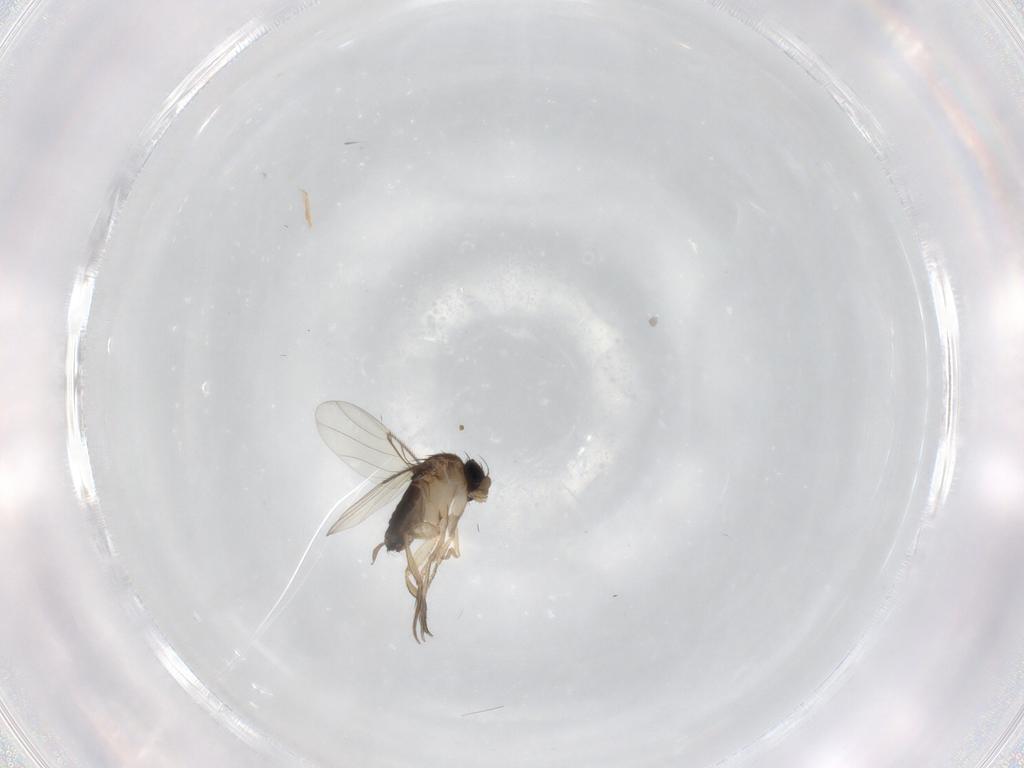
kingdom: Animalia
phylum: Arthropoda
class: Insecta
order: Diptera
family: Sciaridae
